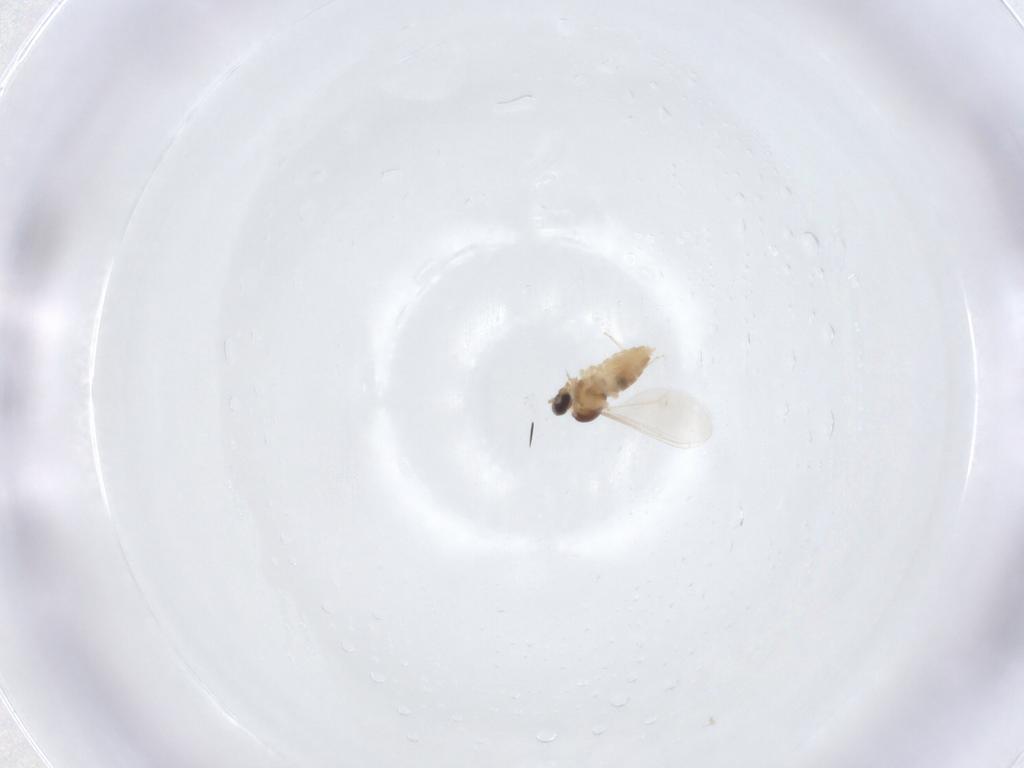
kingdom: Animalia
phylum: Arthropoda
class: Insecta
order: Diptera
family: Cecidomyiidae
